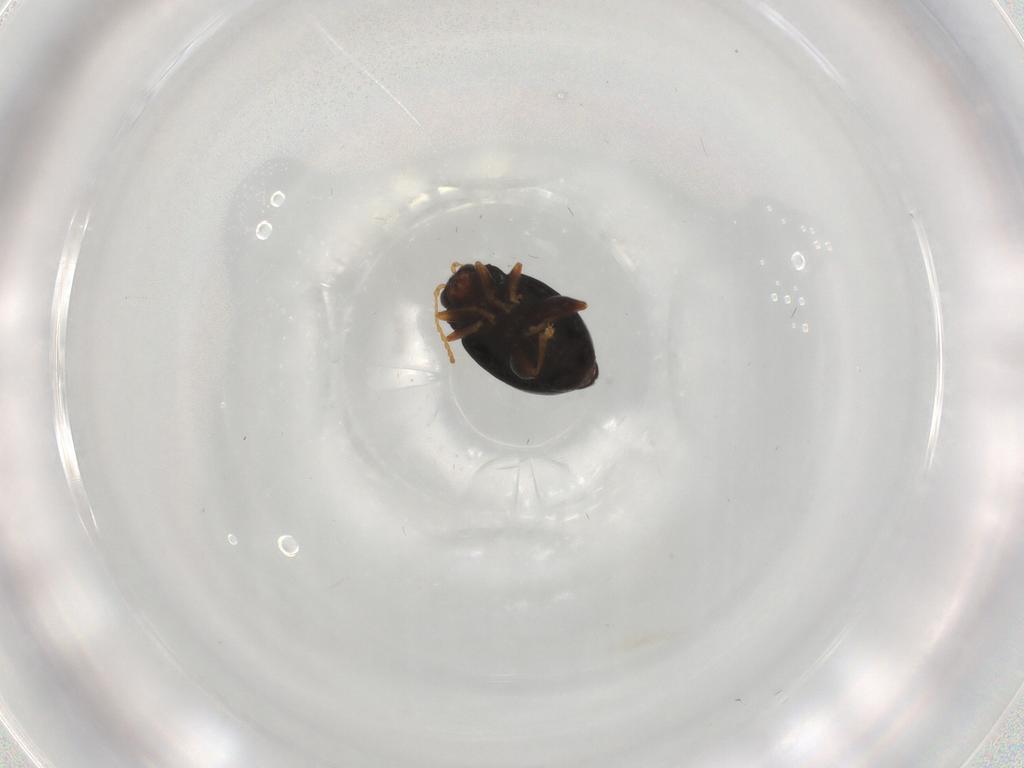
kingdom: Animalia
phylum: Arthropoda
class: Insecta
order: Coleoptera
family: Chrysomelidae
